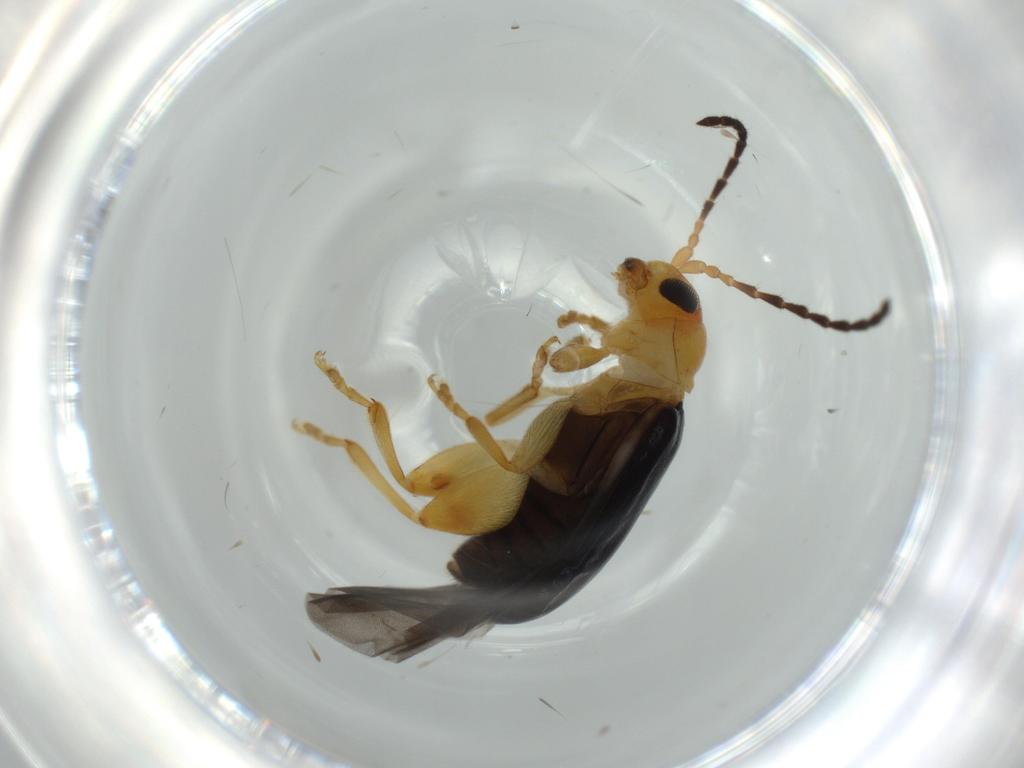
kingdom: Animalia
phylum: Arthropoda
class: Insecta
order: Coleoptera
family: Chrysomelidae
